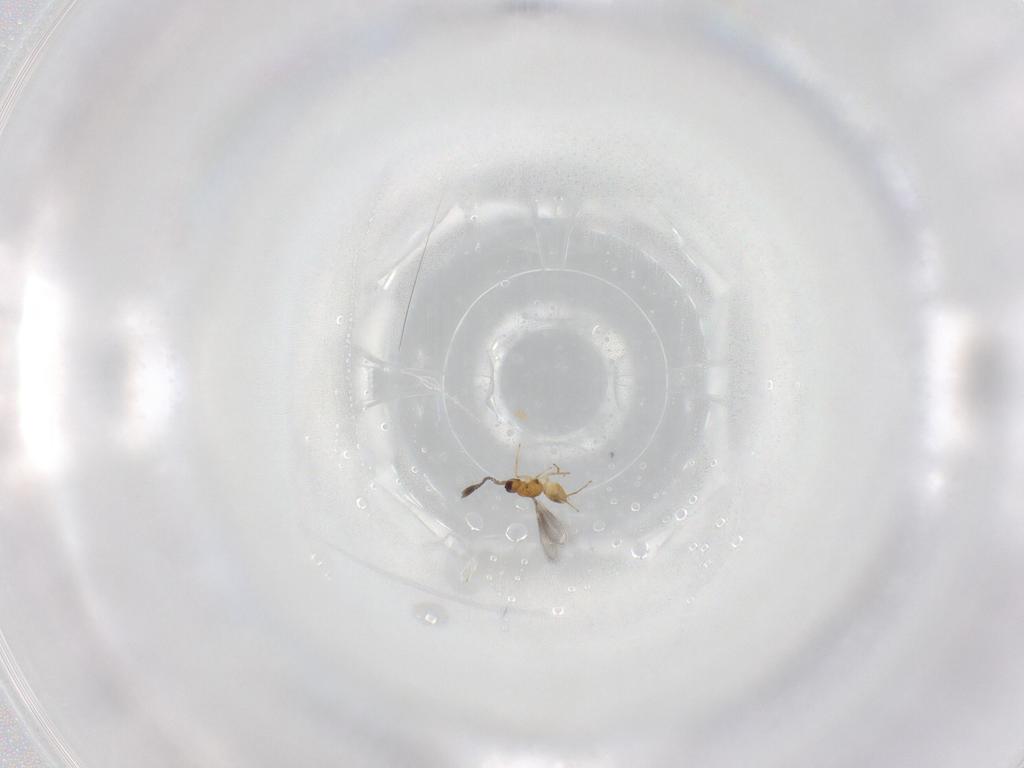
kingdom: Animalia
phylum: Arthropoda
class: Insecta
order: Hymenoptera
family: Mymaridae
